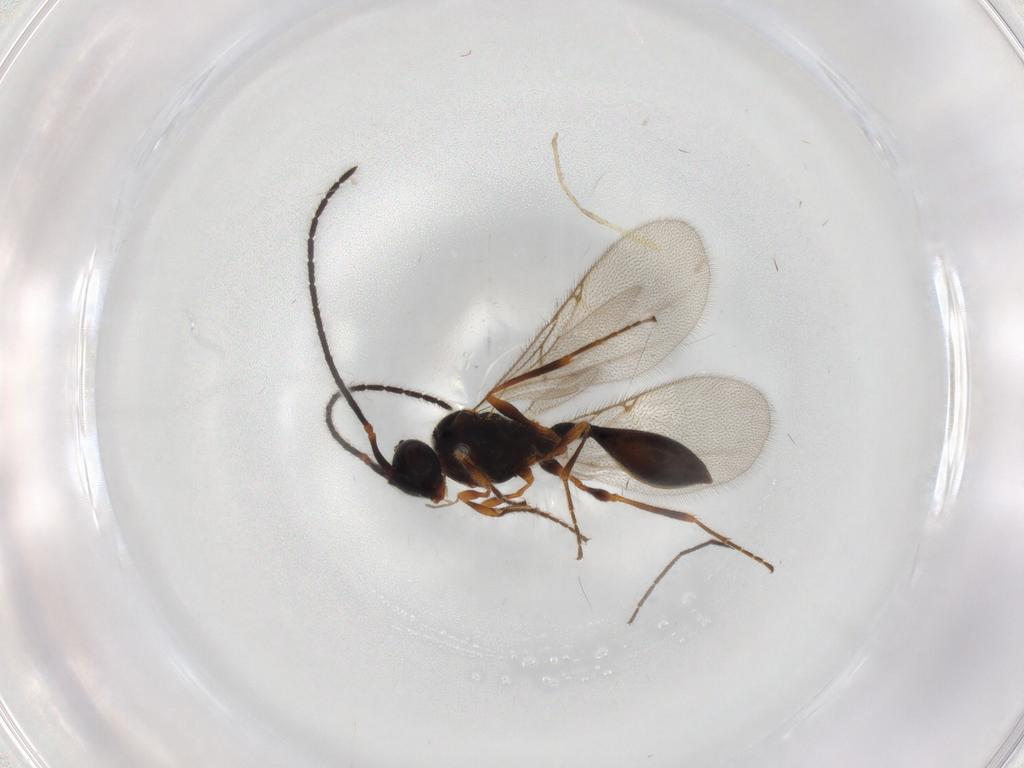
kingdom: Animalia
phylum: Arthropoda
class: Insecta
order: Hymenoptera
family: Diapriidae
